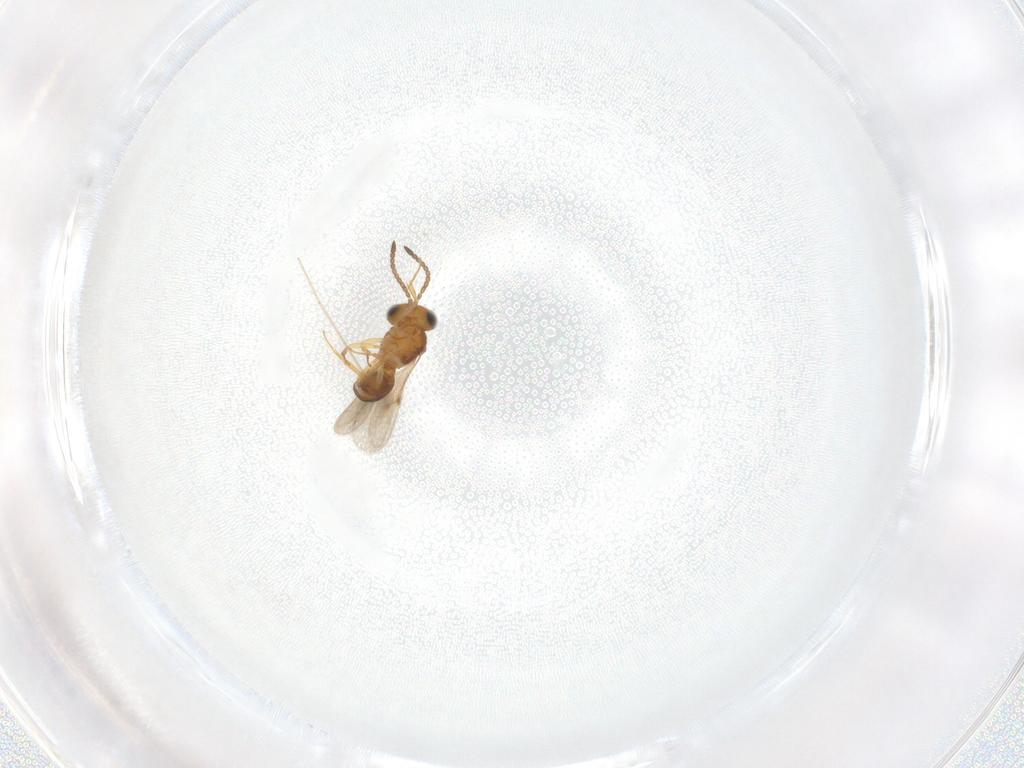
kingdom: Animalia
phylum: Arthropoda
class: Insecta
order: Hymenoptera
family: Scelionidae
